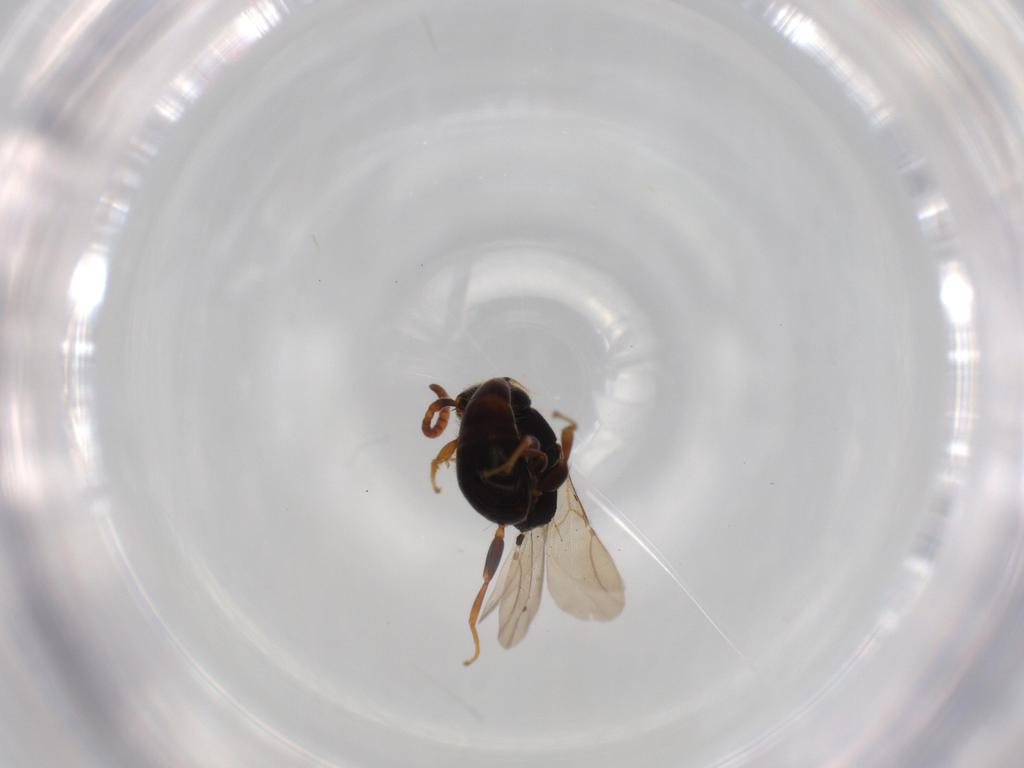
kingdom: Animalia
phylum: Arthropoda
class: Insecta
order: Hymenoptera
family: Bethylidae
